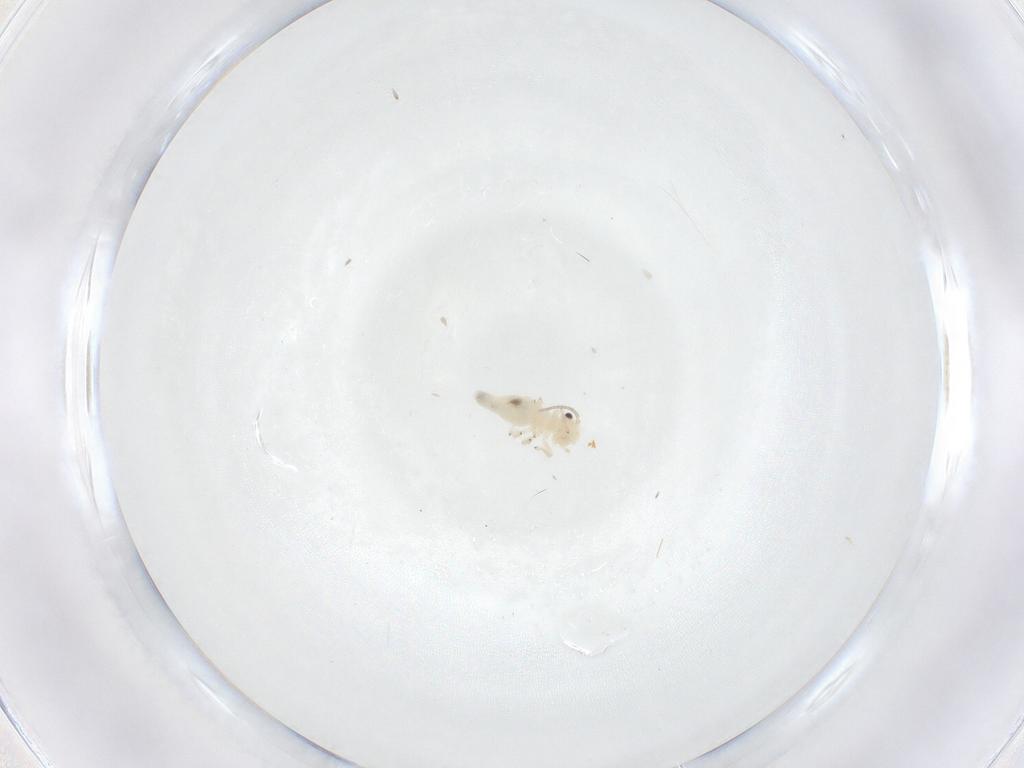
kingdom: Animalia
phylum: Arthropoda
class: Insecta
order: Psocodea
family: Caeciliusidae
